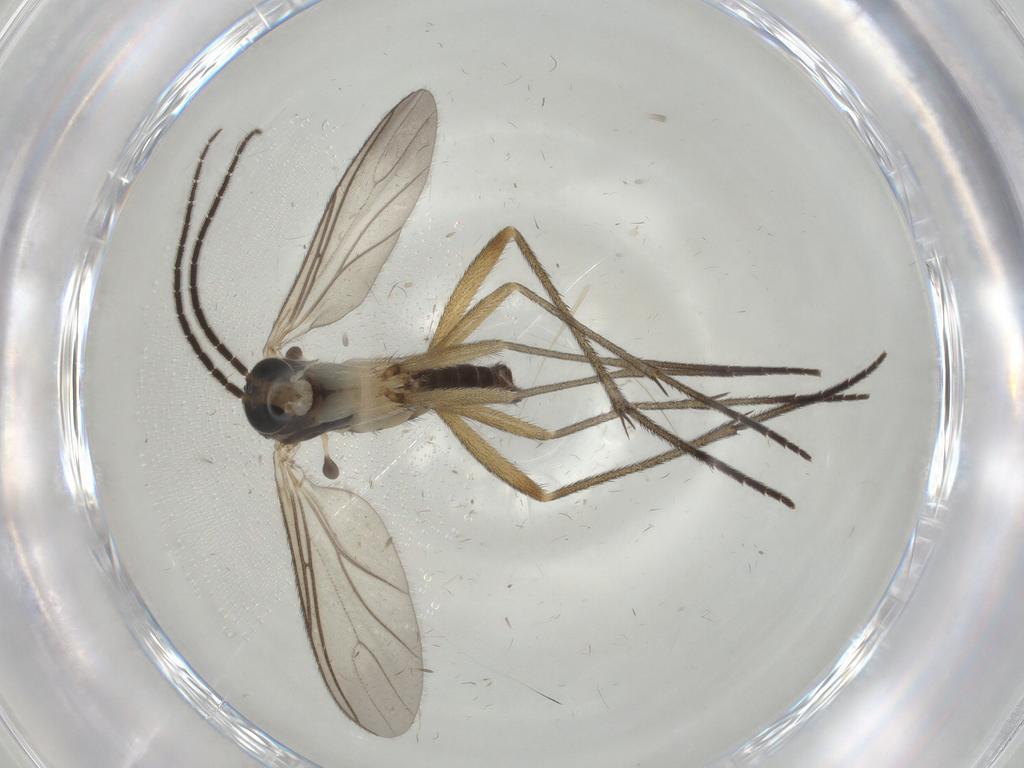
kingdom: Animalia
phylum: Arthropoda
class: Insecta
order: Diptera
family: Sciaridae
